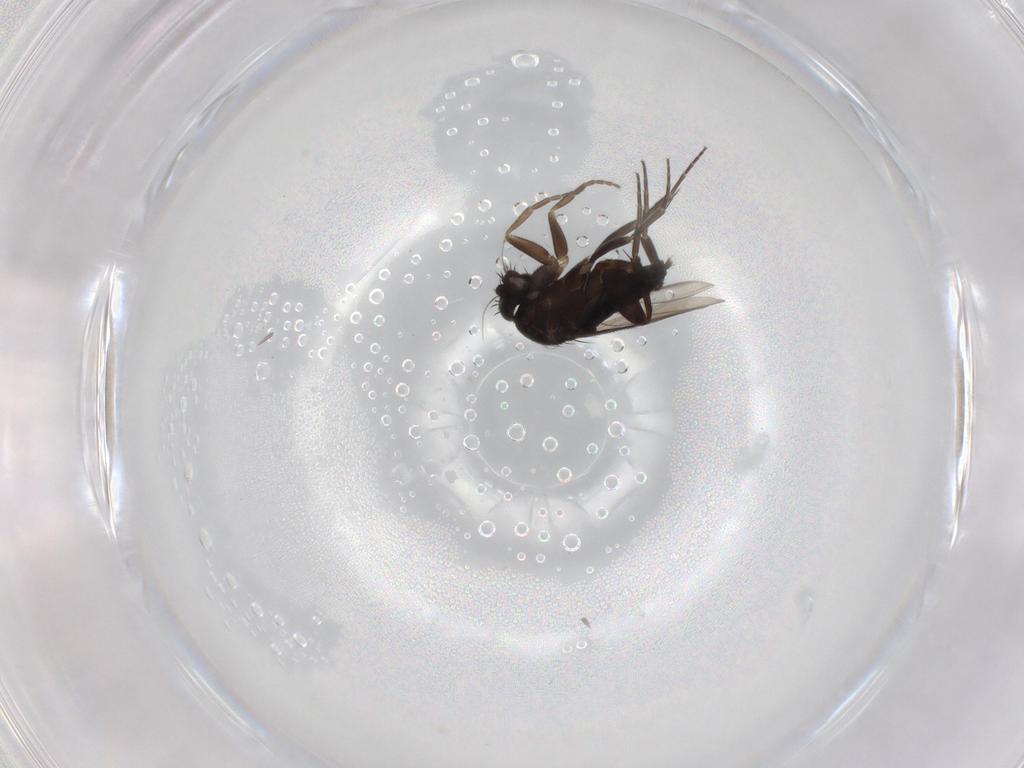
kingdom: Animalia
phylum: Arthropoda
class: Insecta
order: Diptera
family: Phoridae
